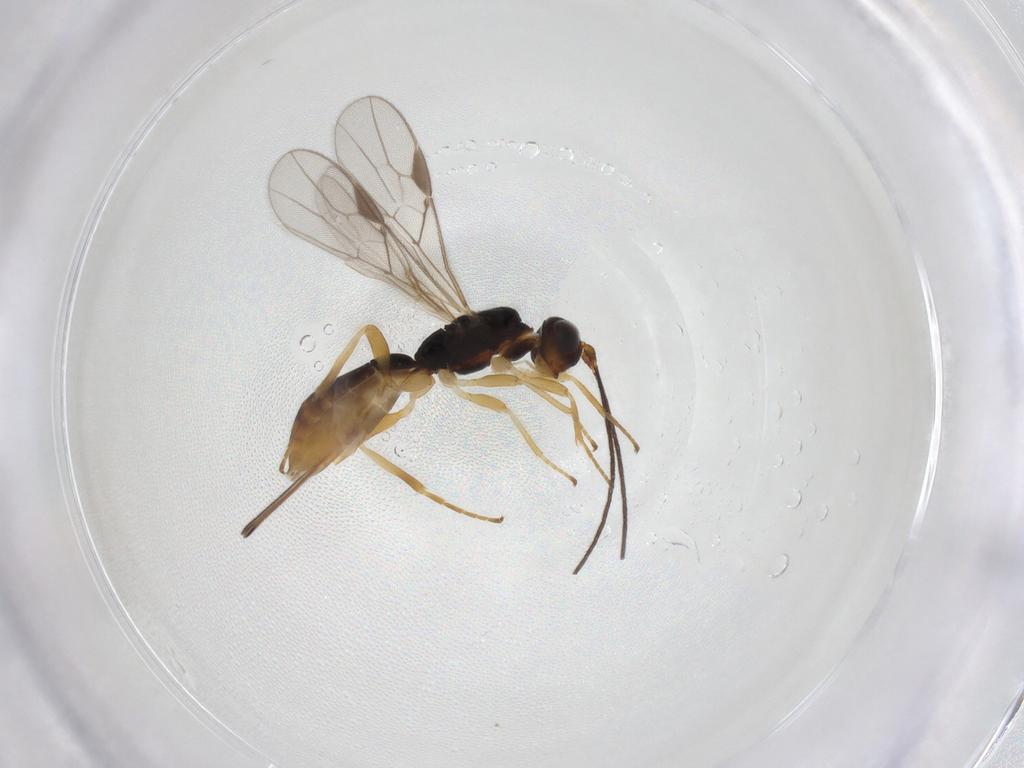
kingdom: Animalia
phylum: Arthropoda
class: Insecta
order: Hymenoptera
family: Braconidae
